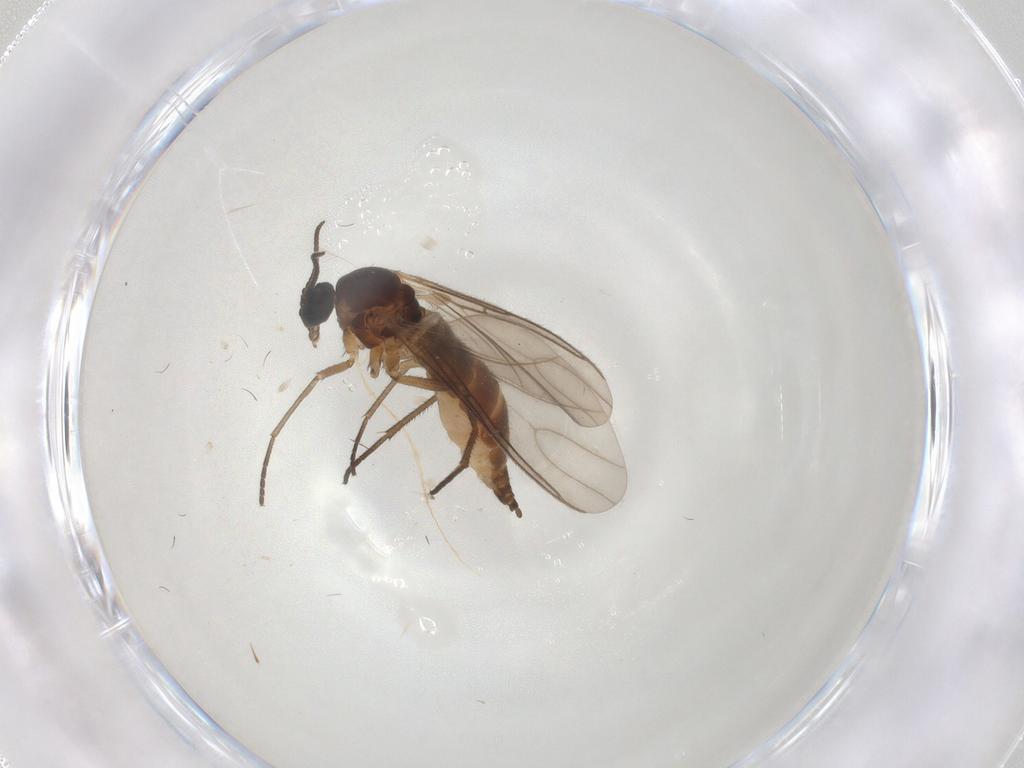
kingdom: Animalia
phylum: Arthropoda
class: Insecta
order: Diptera
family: Sciaridae
